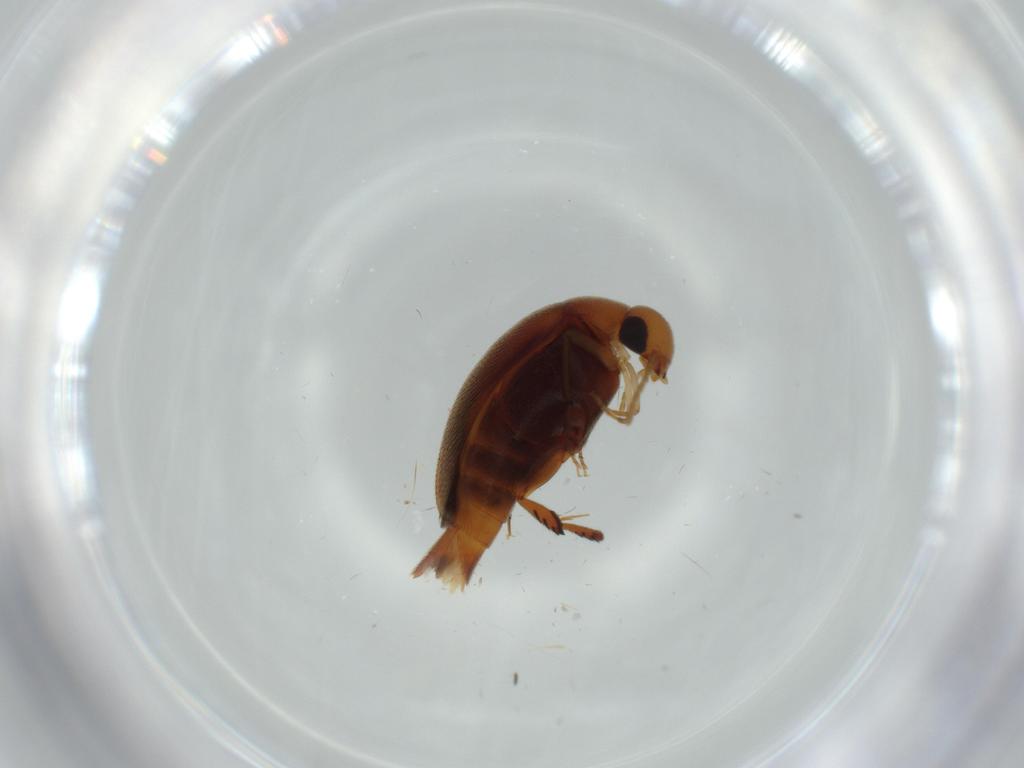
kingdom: Animalia
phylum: Arthropoda
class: Insecta
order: Coleoptera
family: Mordellidae
